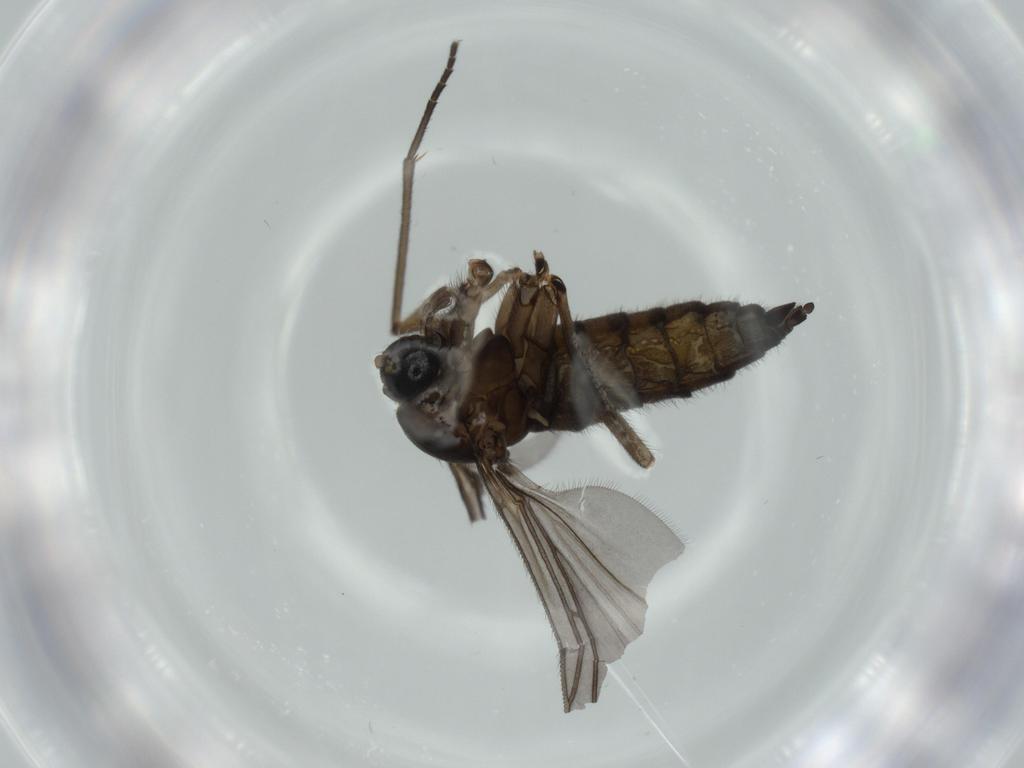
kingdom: Animalia
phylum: Arthropoda
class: Insecta
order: Diptera
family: Sciaridae
